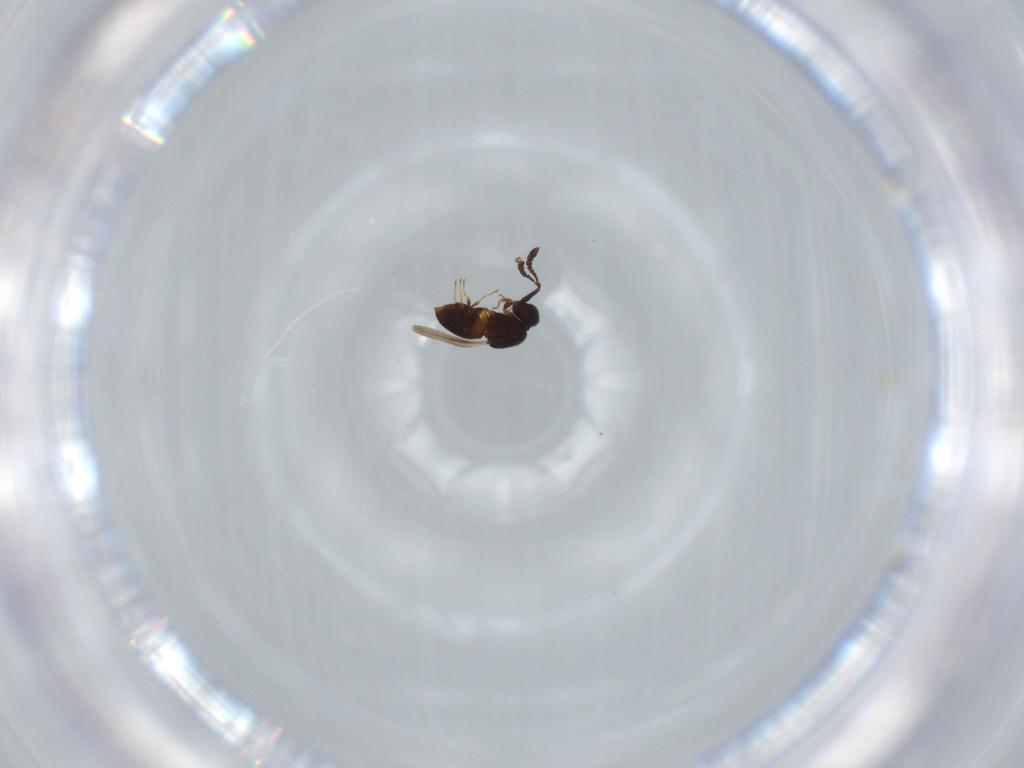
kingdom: Animalia
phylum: Arthropoda
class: Insecta
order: Hymenoptera
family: Ceraphronidae
